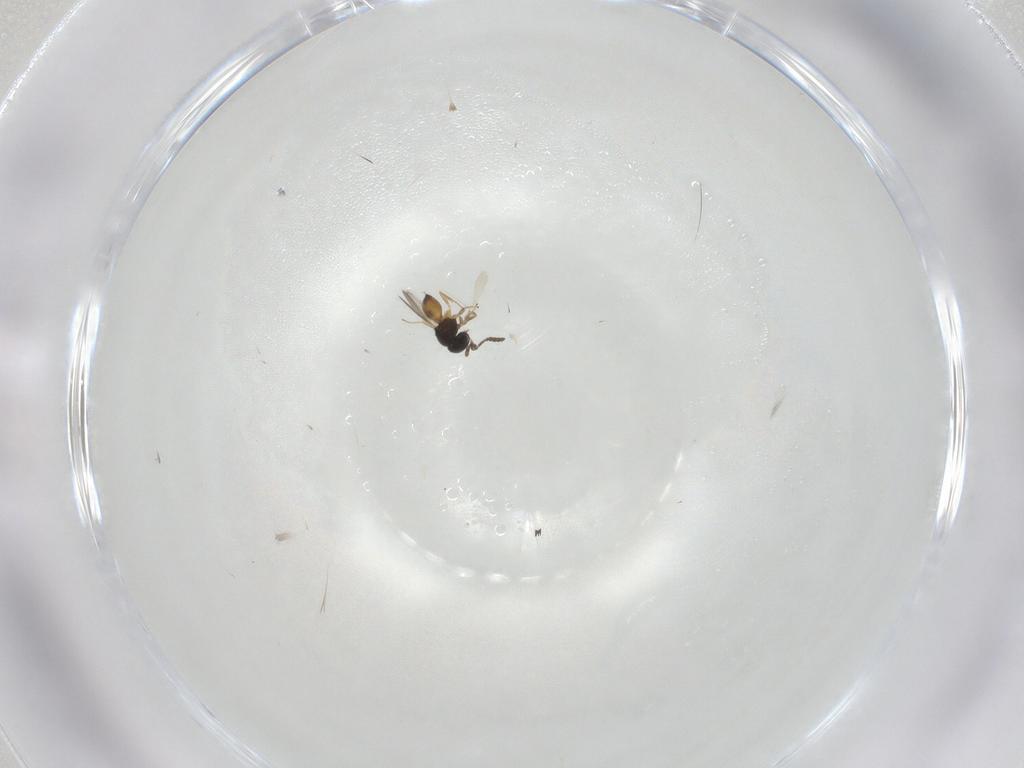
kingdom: Animalia
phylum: Arthropoda
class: Insecta
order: Hymenoptera
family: Scelionidae
